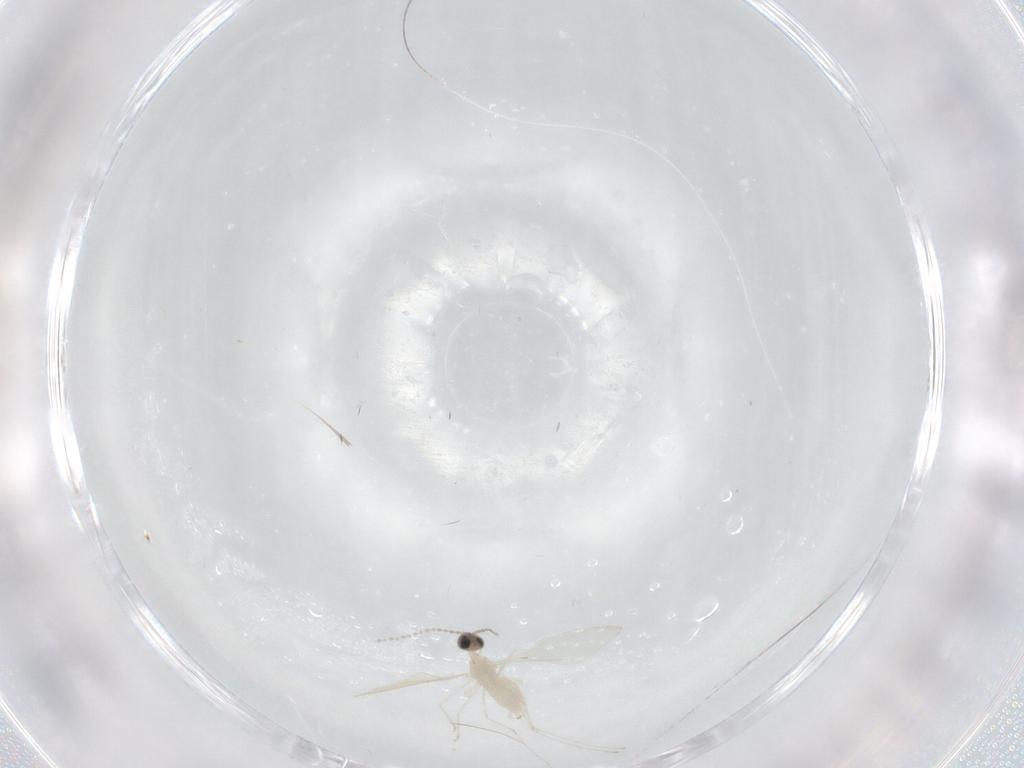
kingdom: Animalia
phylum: Arthropoda
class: Insecta
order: Diptera
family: Cecidomyiidae
